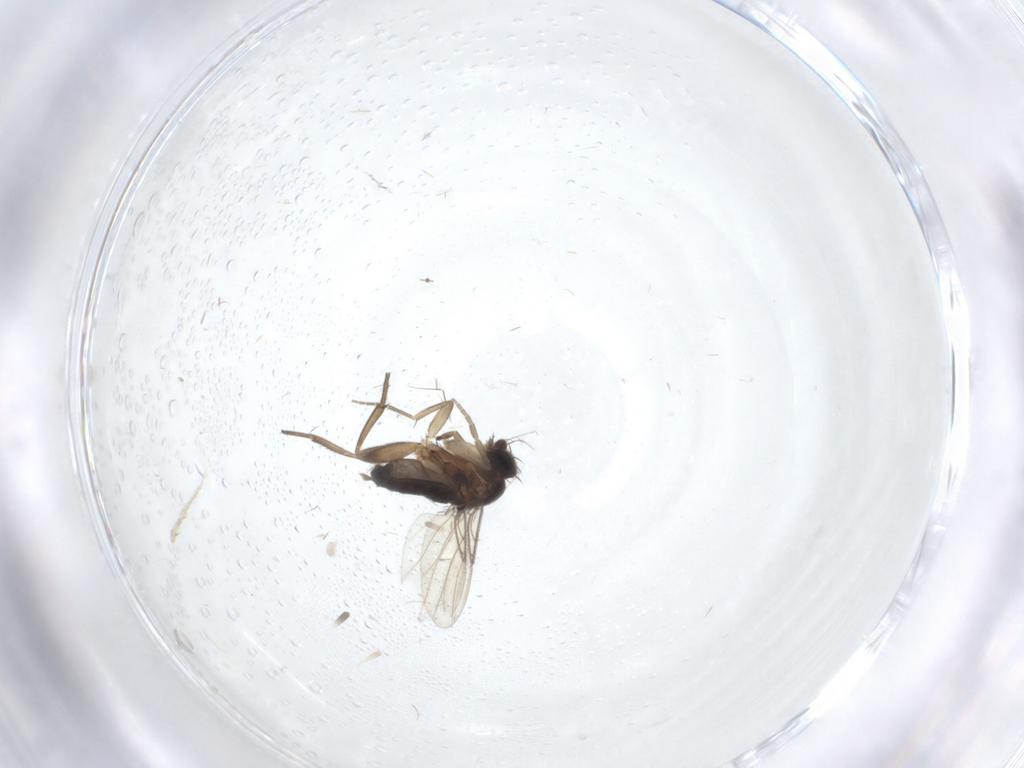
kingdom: Animalia
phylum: Arthropoda
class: Insecta
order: Diptera
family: Phoridae
